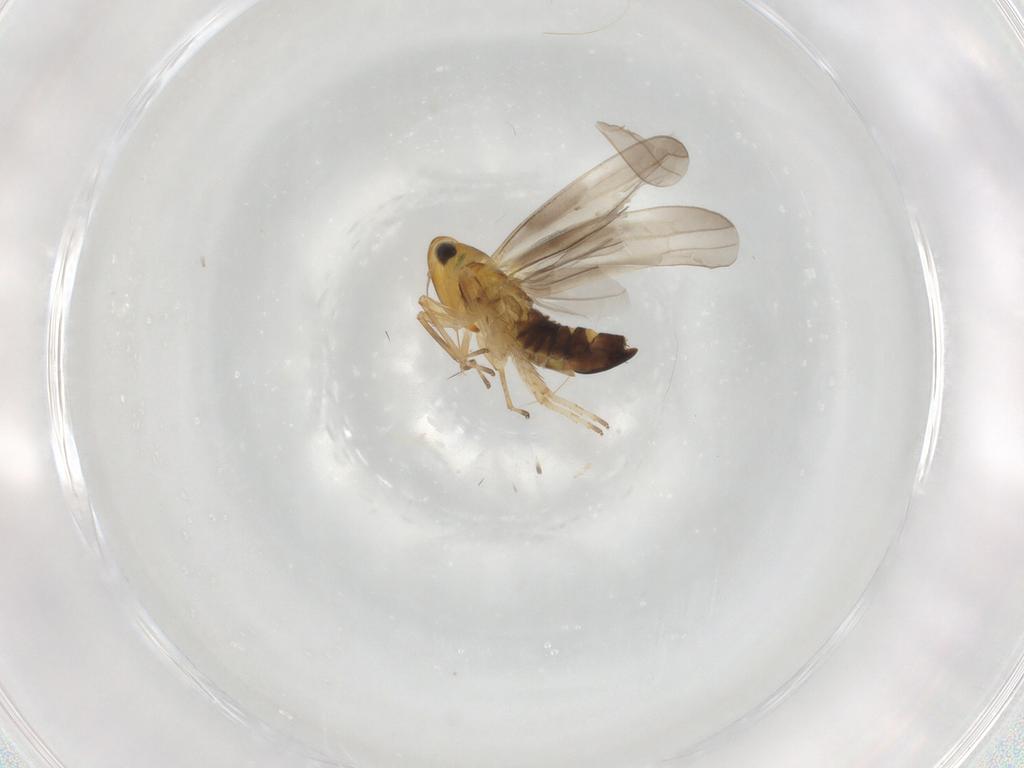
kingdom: Animalia
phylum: Arthropoda
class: Insecta
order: Hemiptera
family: Cicadellidae
